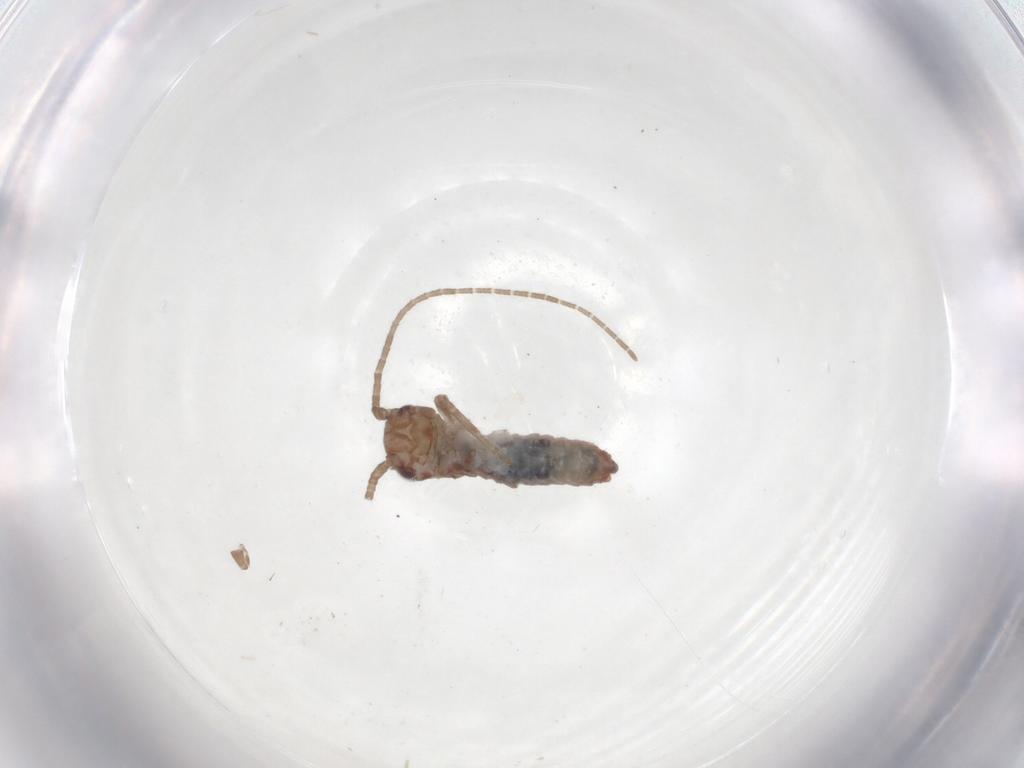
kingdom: Animalia
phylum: Arthropoda
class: Insecta
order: Orthoptera
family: Mogoplistidae
